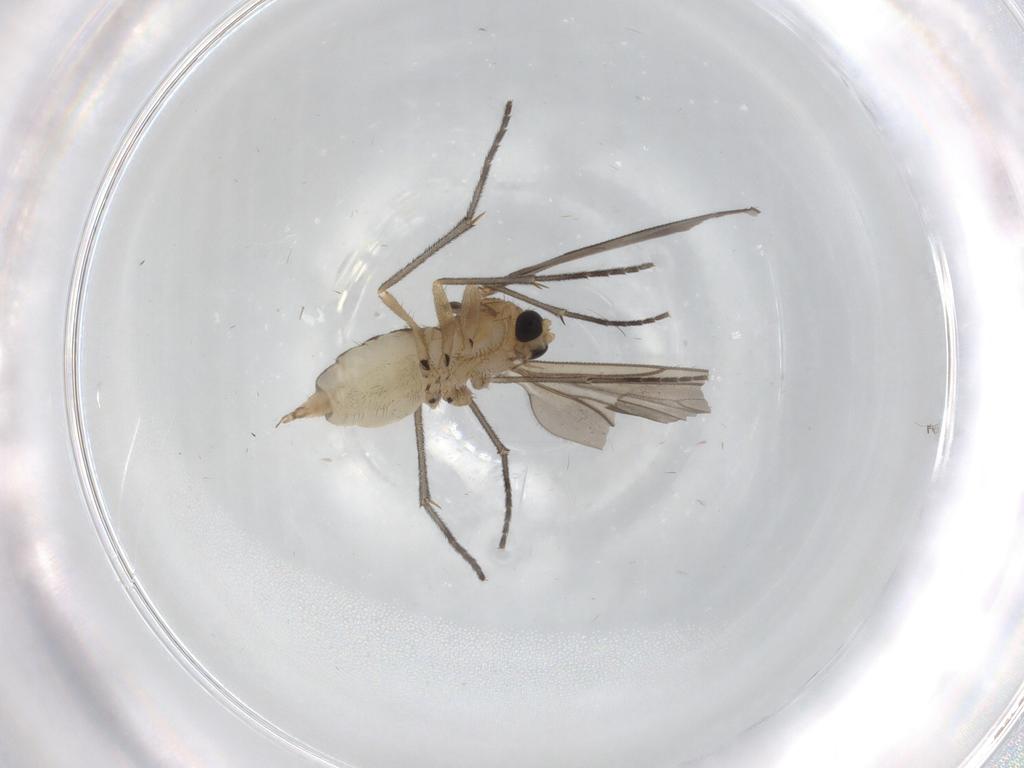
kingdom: Animalia
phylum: Arthropoda
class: Insecta
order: Diptera
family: Sciaridae
